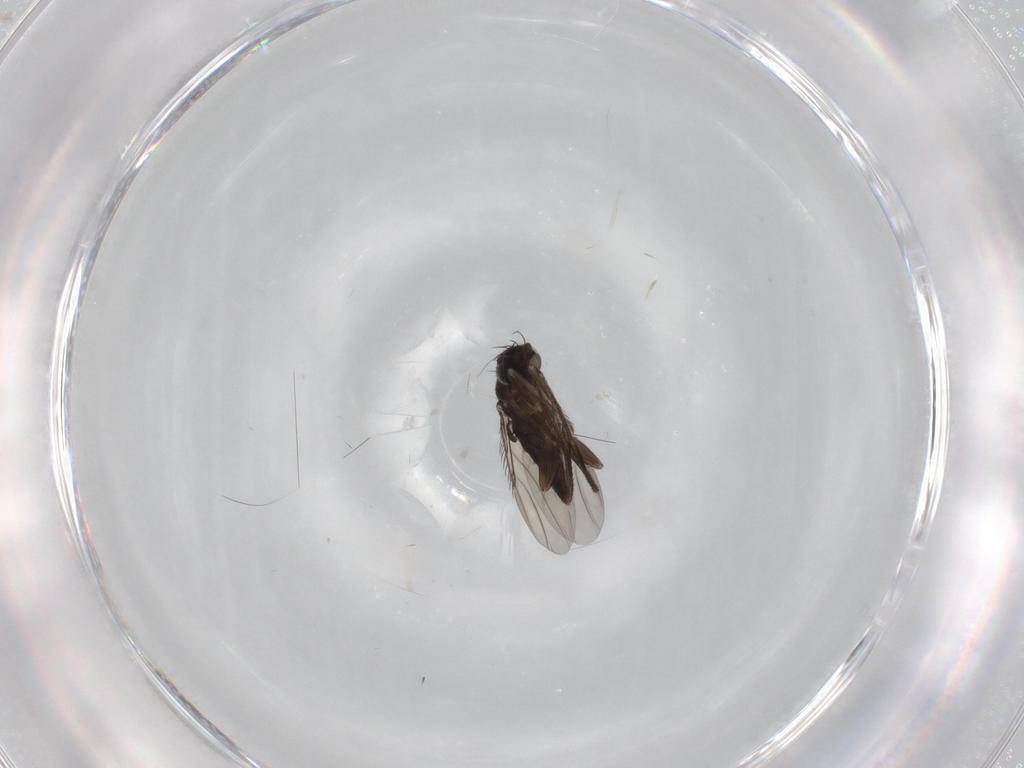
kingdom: Animalia
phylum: Arthropoda
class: Insecta
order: Diptera
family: Phoridae
